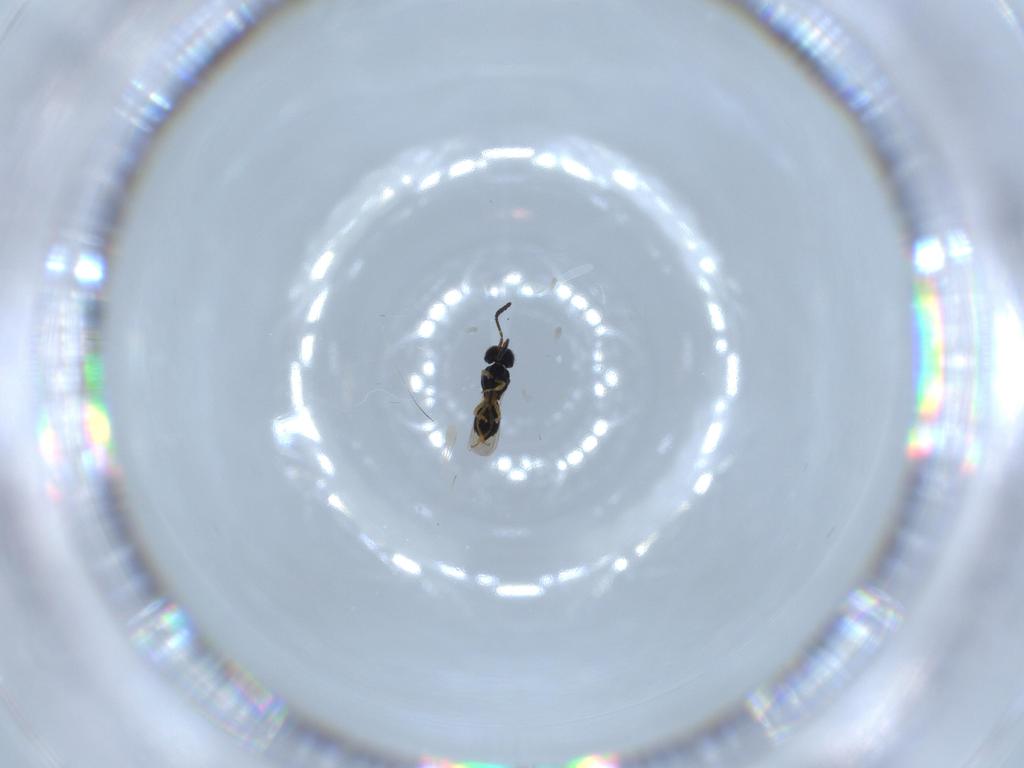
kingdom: Animalia
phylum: Arthropoda
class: Insecta
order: Hymenoptera
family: Scelionidae
